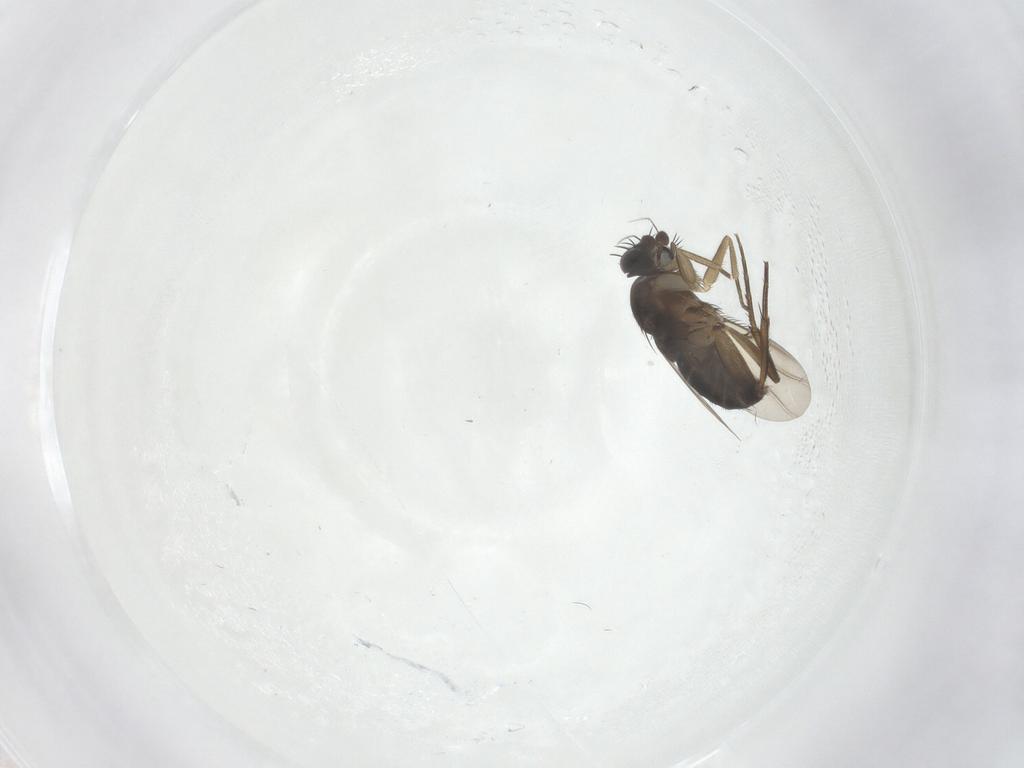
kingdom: Animalia
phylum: Arthropoda
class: Insecta
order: Diptera
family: Phoridae
